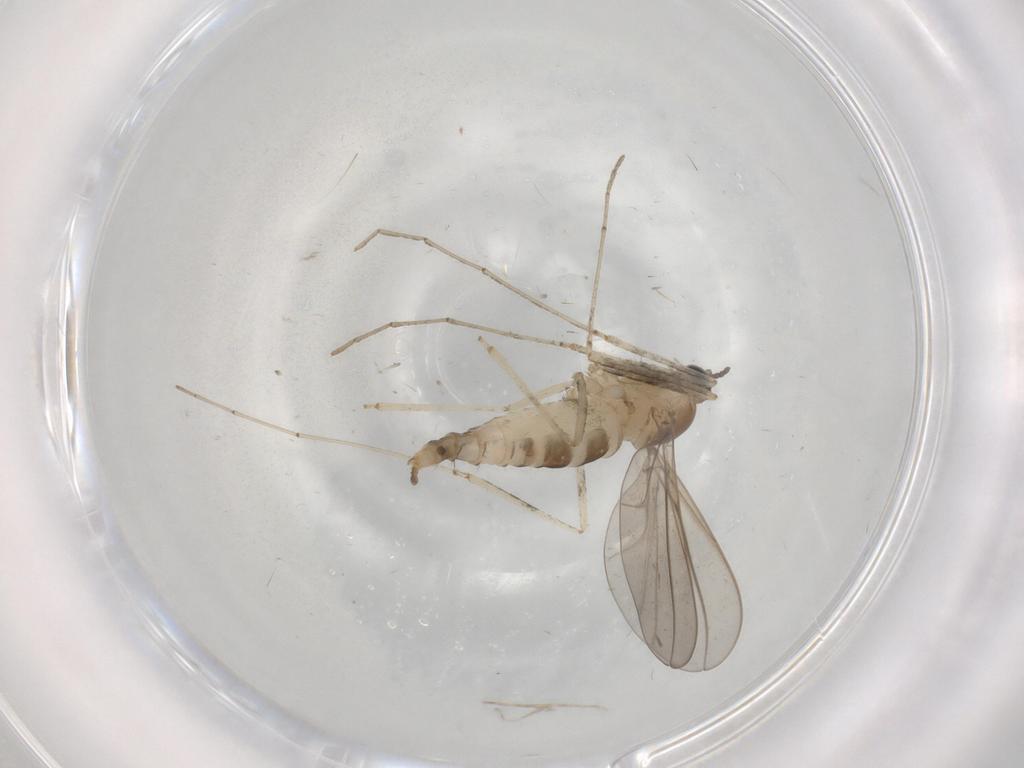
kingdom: Animalia
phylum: Arthropoda
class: Insecta
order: Diptera
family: Cecidomyiidae
